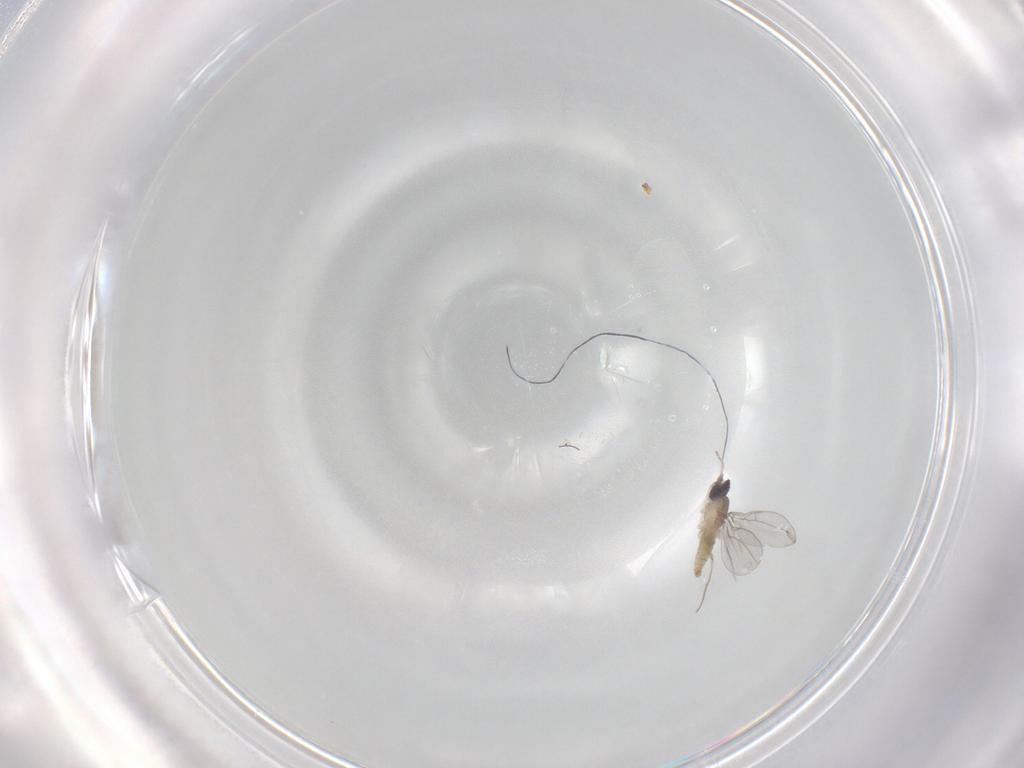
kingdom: Animalia
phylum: Arthropoda
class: Insecta
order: Diptera
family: Cecidomyiidae
